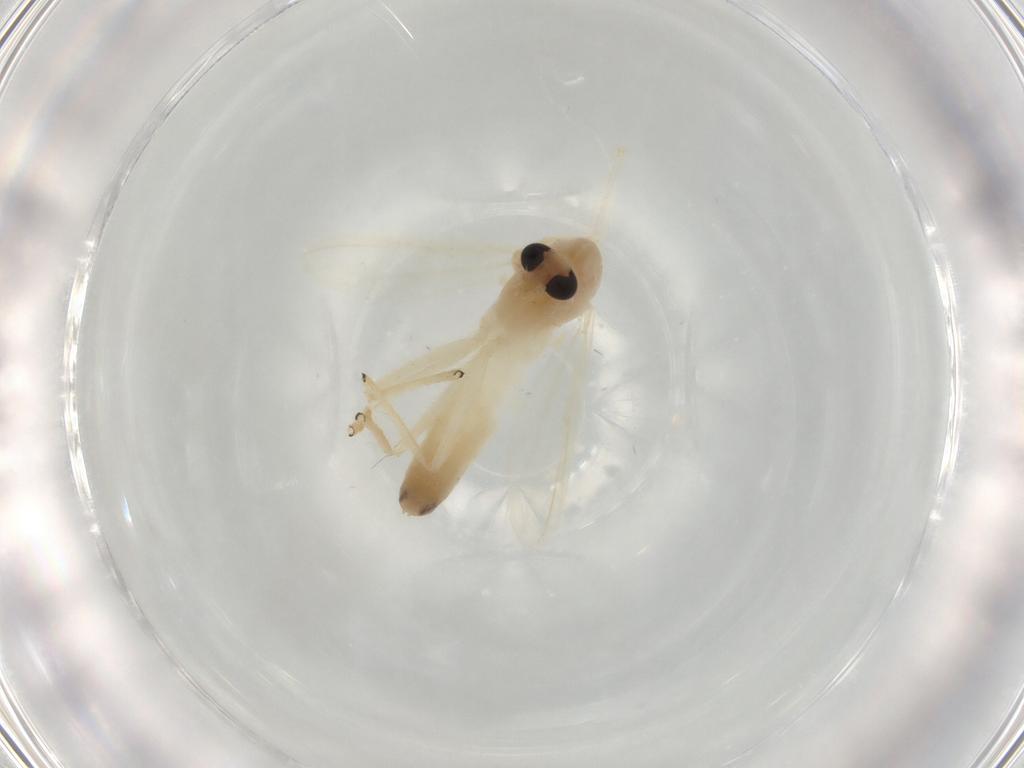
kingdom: Animalia
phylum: Arthropoda
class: Insecta
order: Diptera
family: Chironomidae
